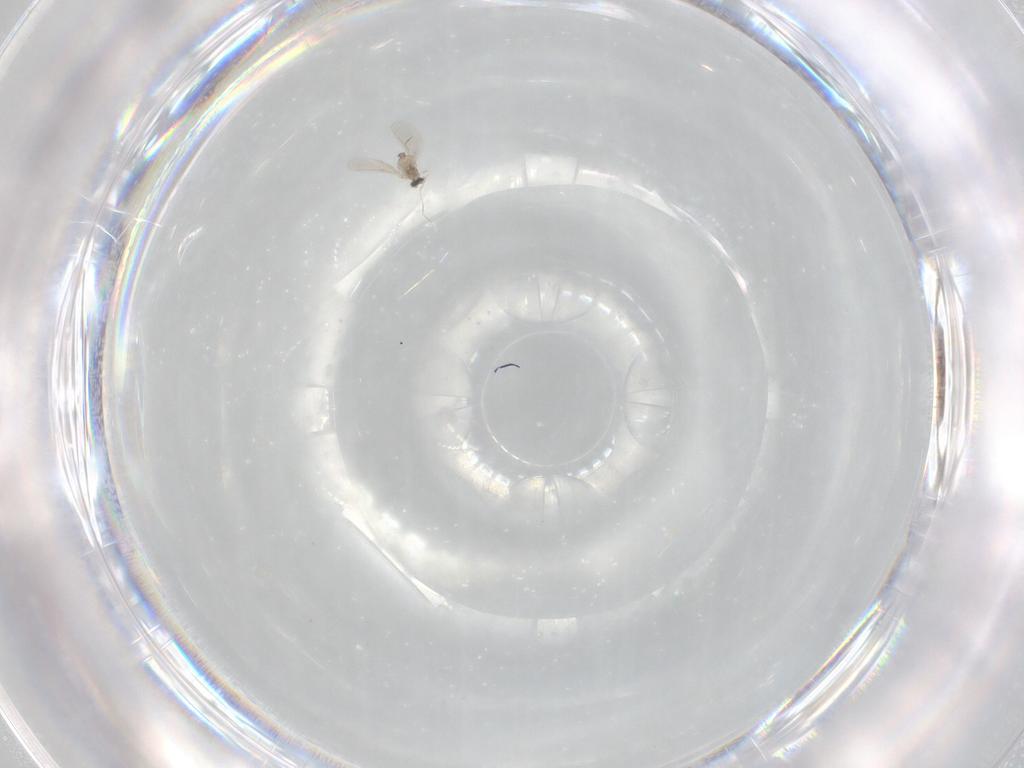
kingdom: Animalia
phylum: Arthropoda
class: Insecta
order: Diptera
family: Cecidomyiidae
